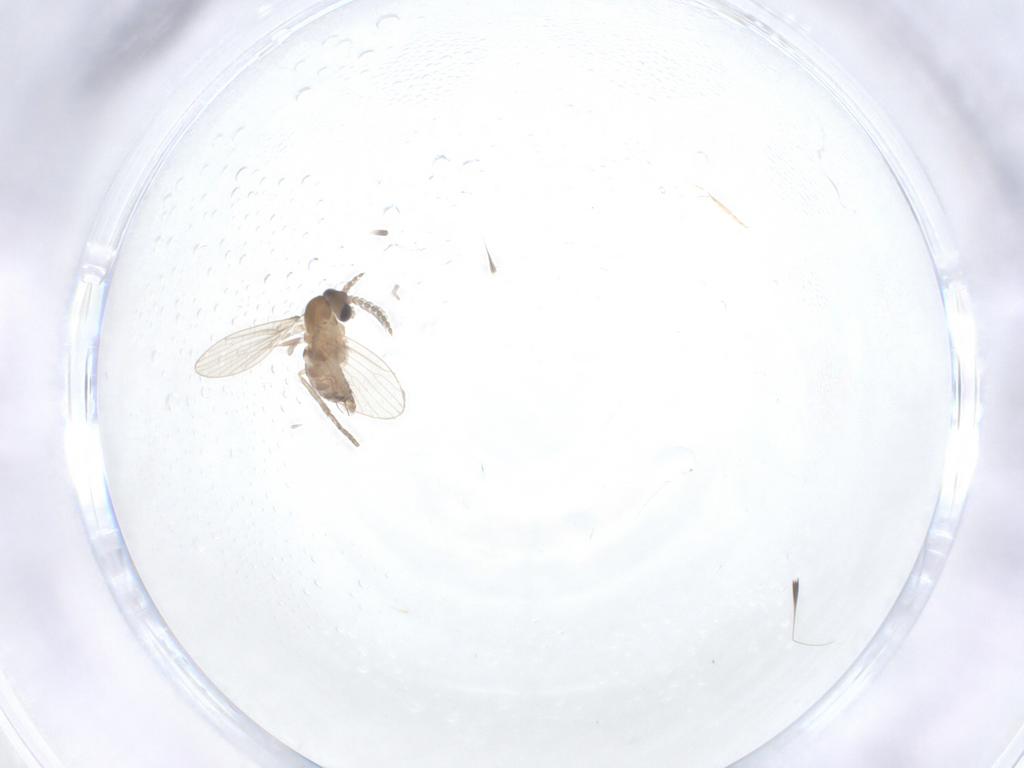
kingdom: Animalia
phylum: Arthropoda
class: Insecta
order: Diptera
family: Psychodidae
